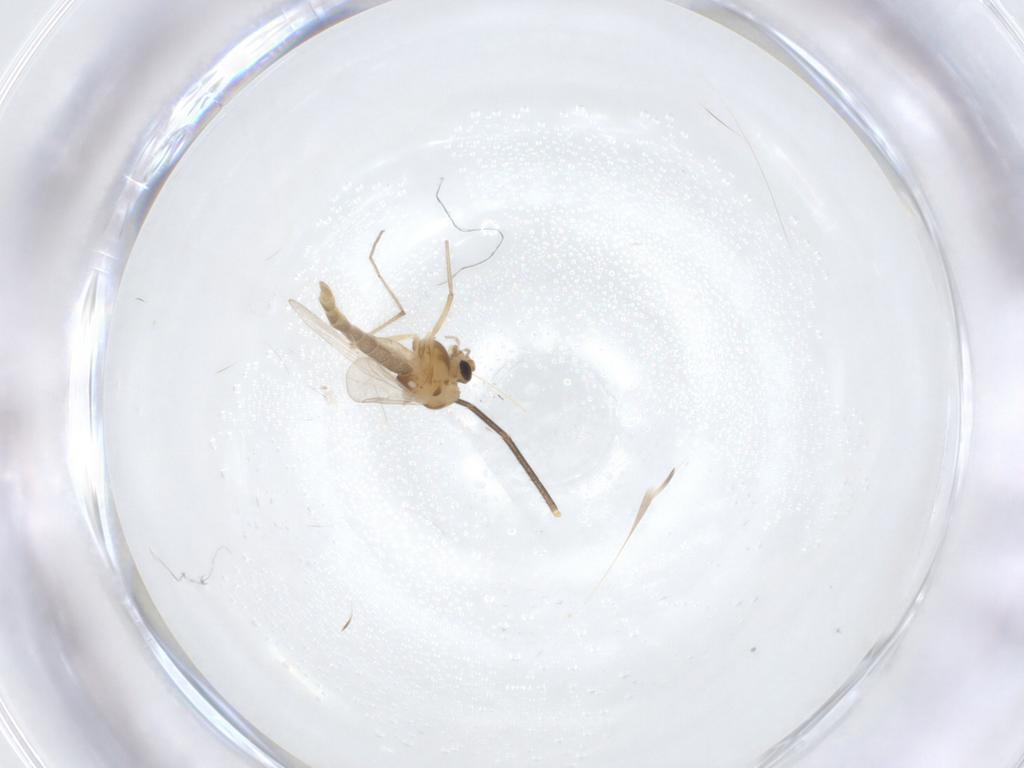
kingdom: Animalia
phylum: Arthropoda
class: Insecta
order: Diptera
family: Chironomidae
